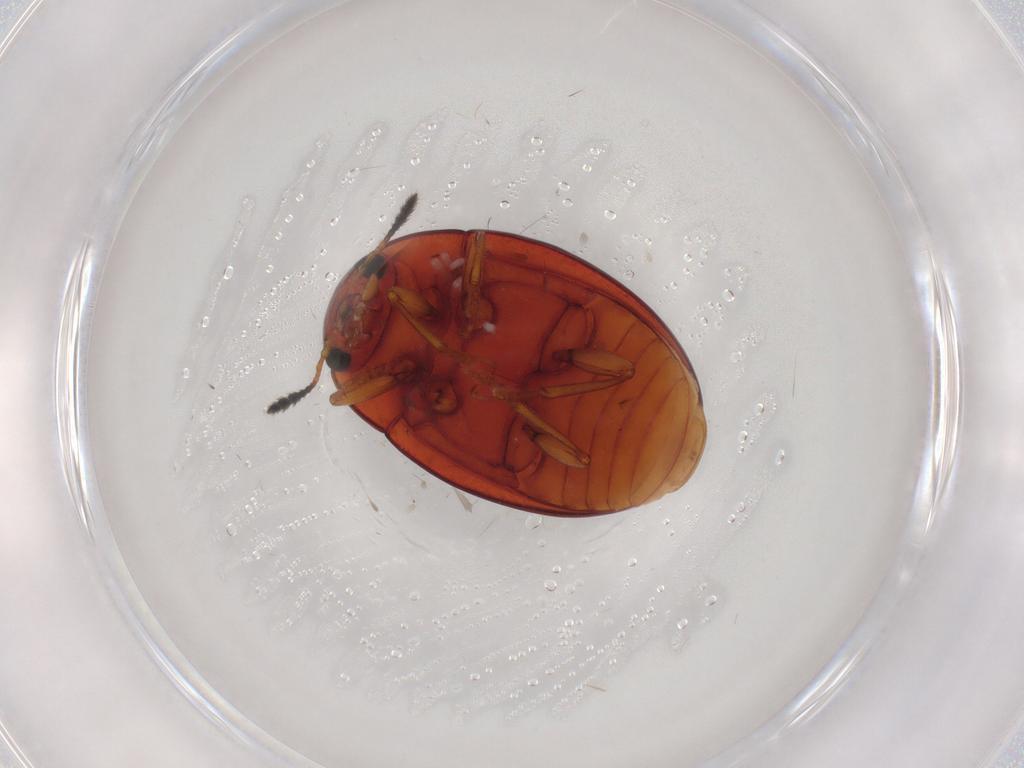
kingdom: Animalia
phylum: Arthropoda
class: Insecta
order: Coleoptera
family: Erotylidae
